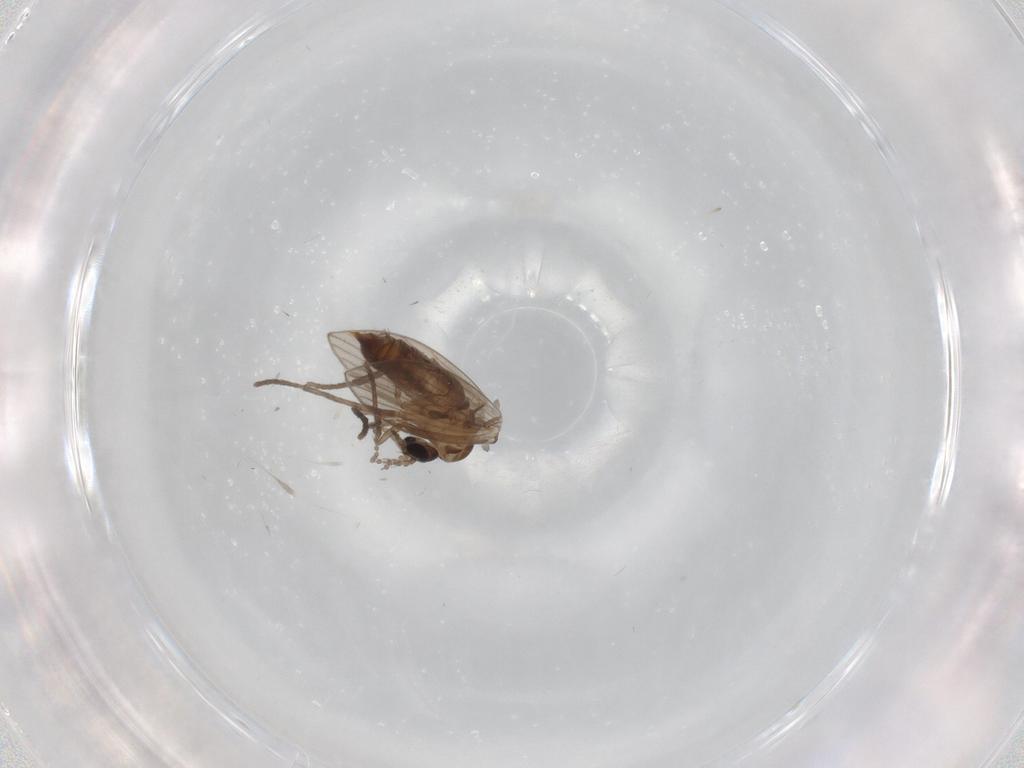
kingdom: Animalia
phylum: Arthropoda
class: Insecta
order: Diptera
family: Psychodidae
